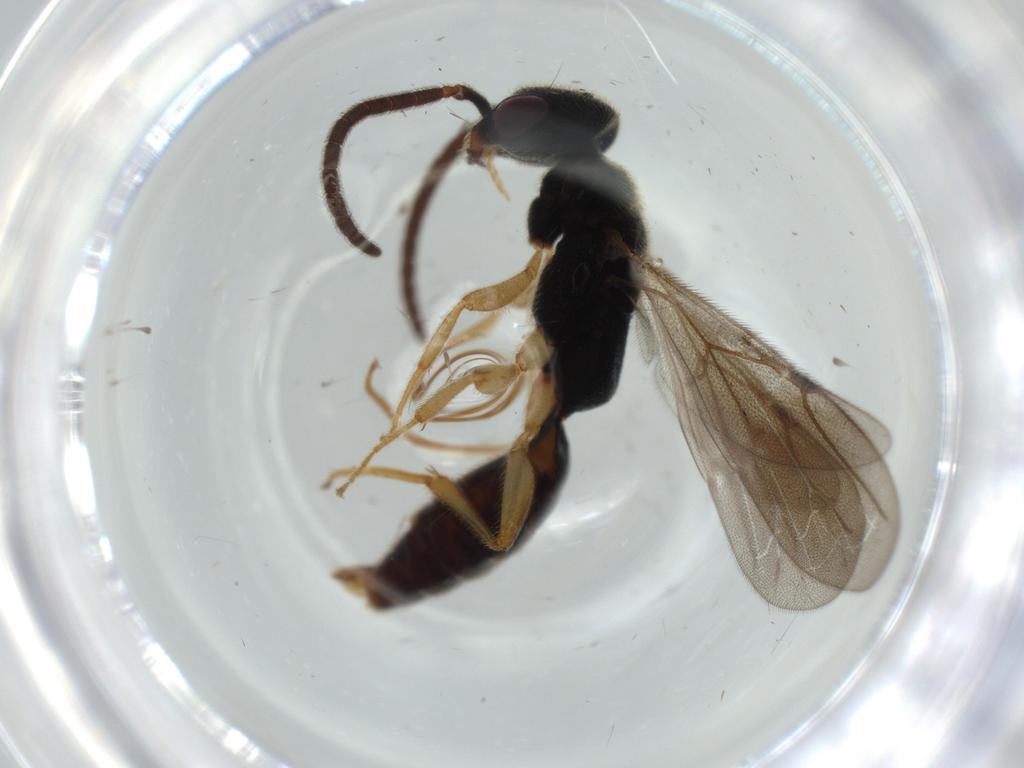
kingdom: Animalia
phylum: Arthropoda
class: Insecta
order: Hymenoptera
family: Bethylidae
